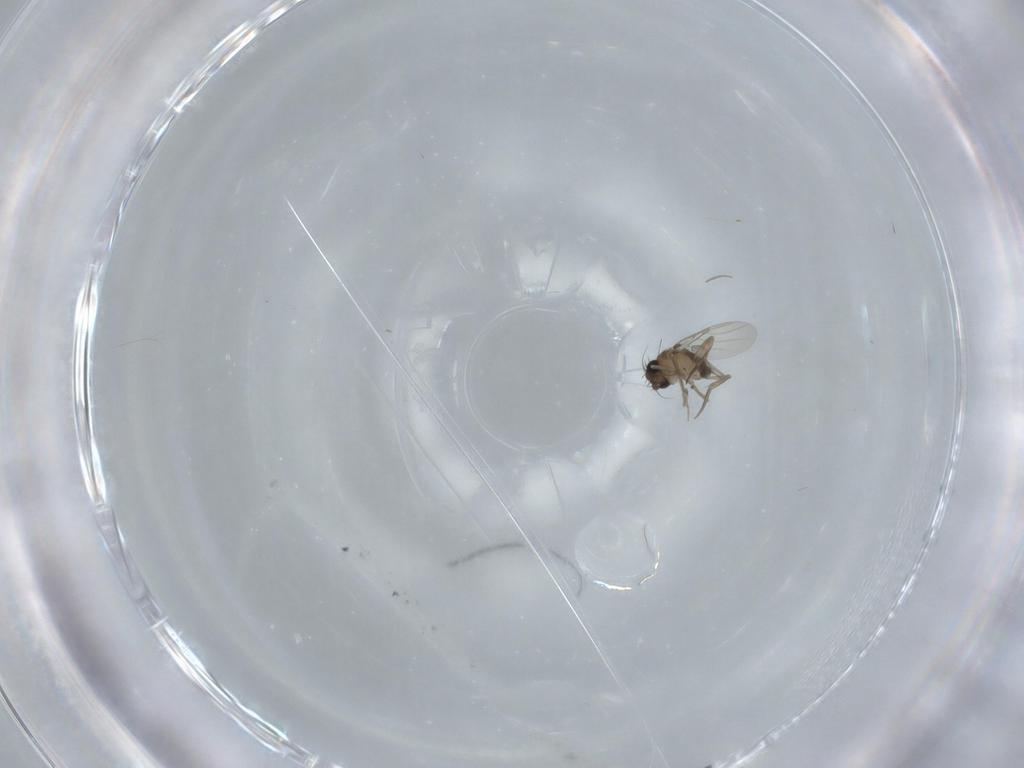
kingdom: Animalia
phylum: Arthropoda
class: Insecta
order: Diptera
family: Phoridae
